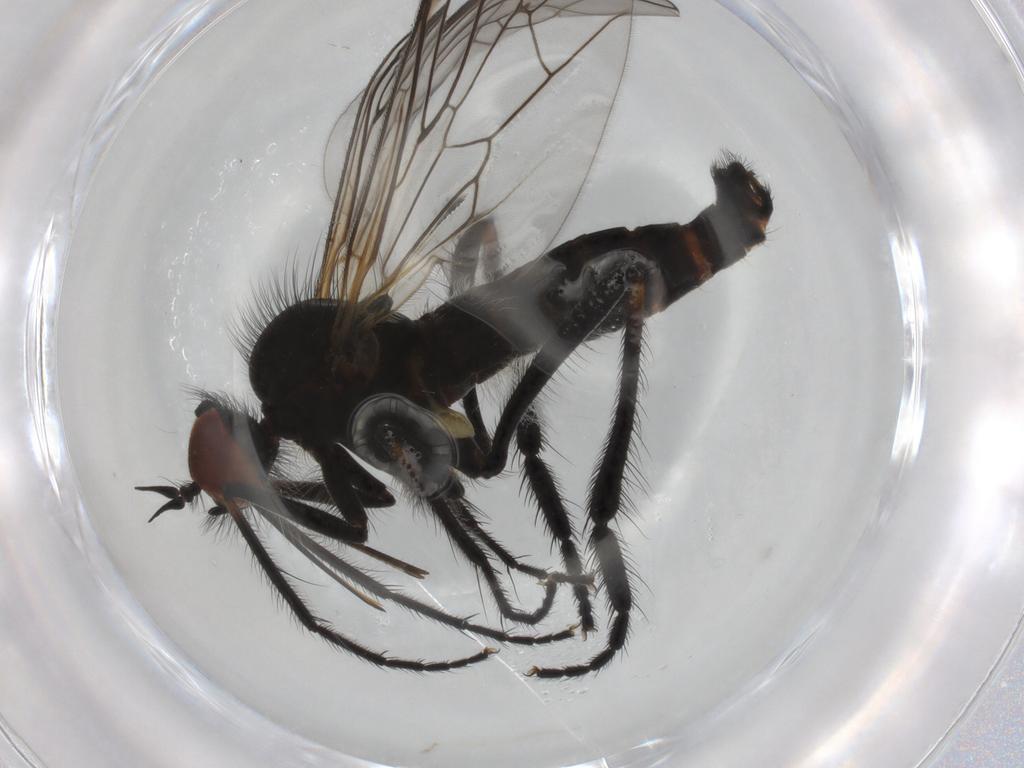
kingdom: Animalia
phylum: Arthropoda
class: Insecta
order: Diptera
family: Empididae
